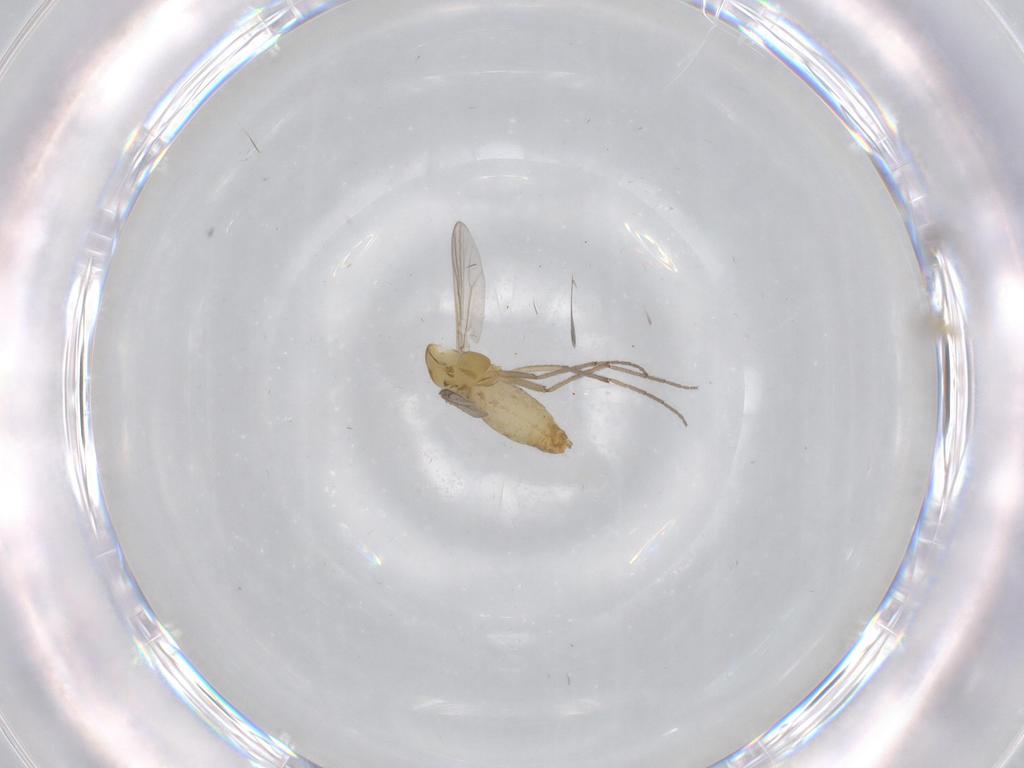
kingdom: Animalia
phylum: Arthropoda
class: Insecta
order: Diptera
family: Chironomidae
